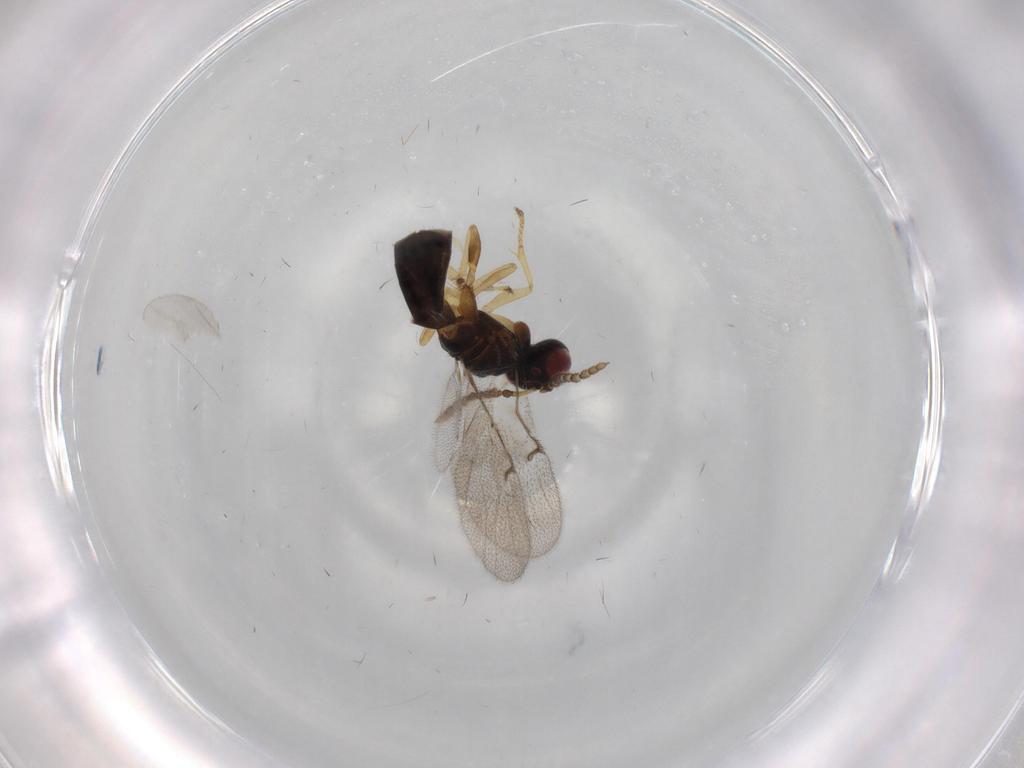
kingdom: Animalia
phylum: Arthropoda
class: Insecta
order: Hymenoptera
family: Agaonidae
